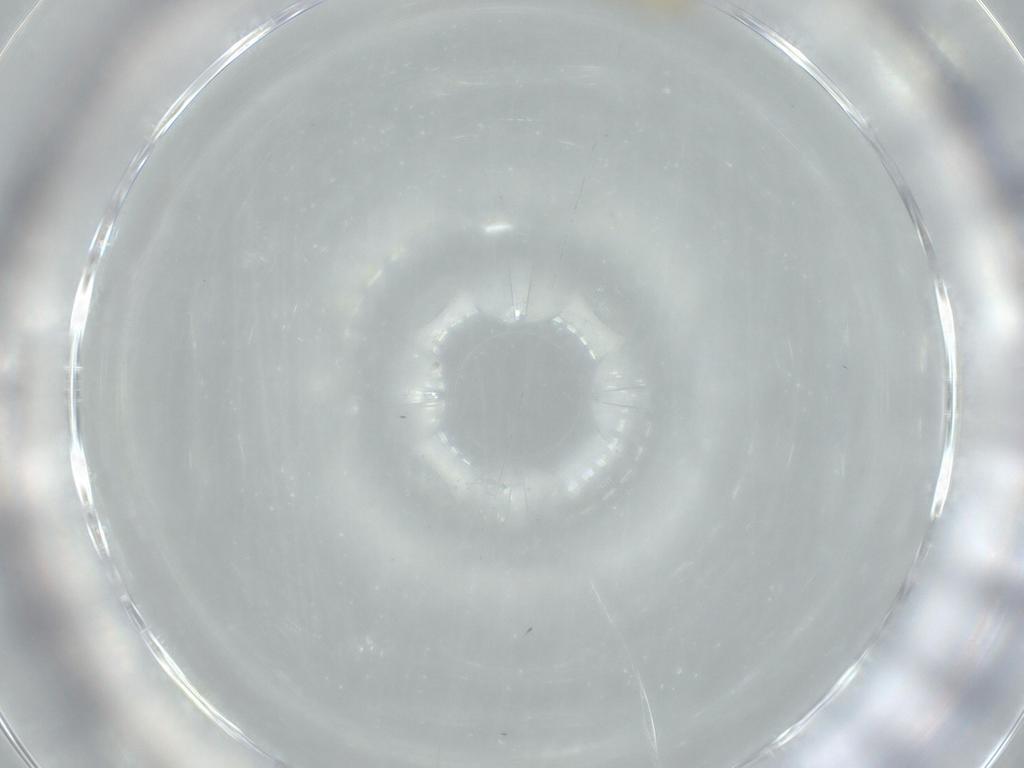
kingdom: Animalia
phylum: Arthropoda
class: Insecta
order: Diptera
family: Cecidomyiidae
